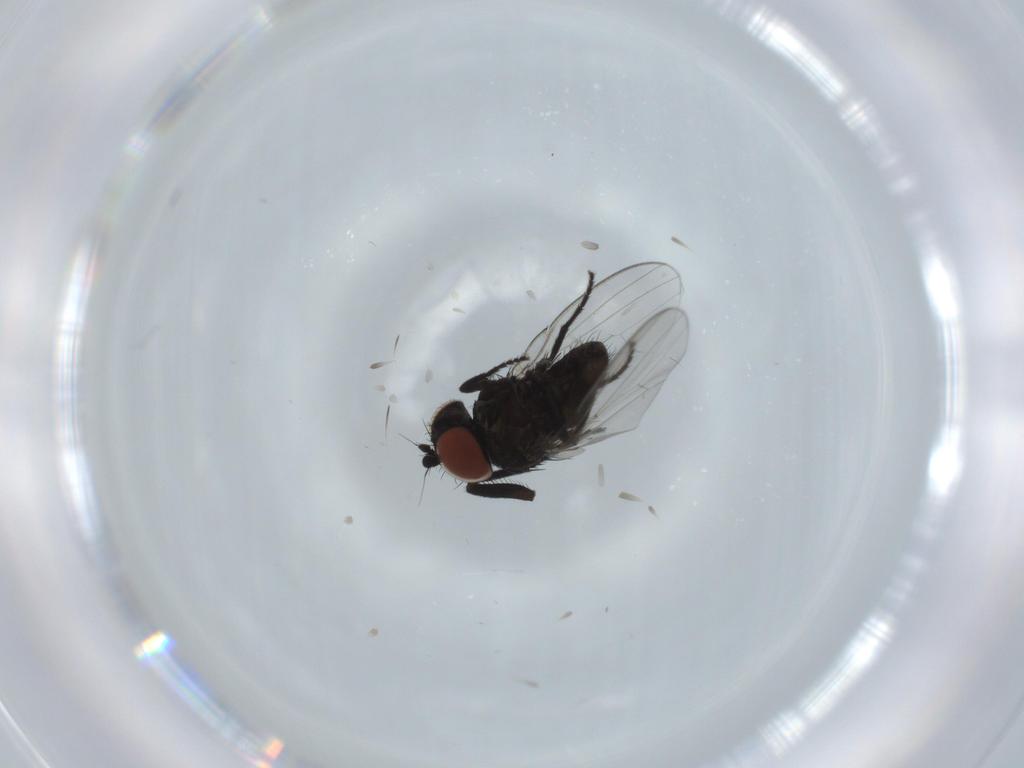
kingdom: Animalia
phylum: Arthropoda
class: Insecta
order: Diptera
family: Milichiidae
